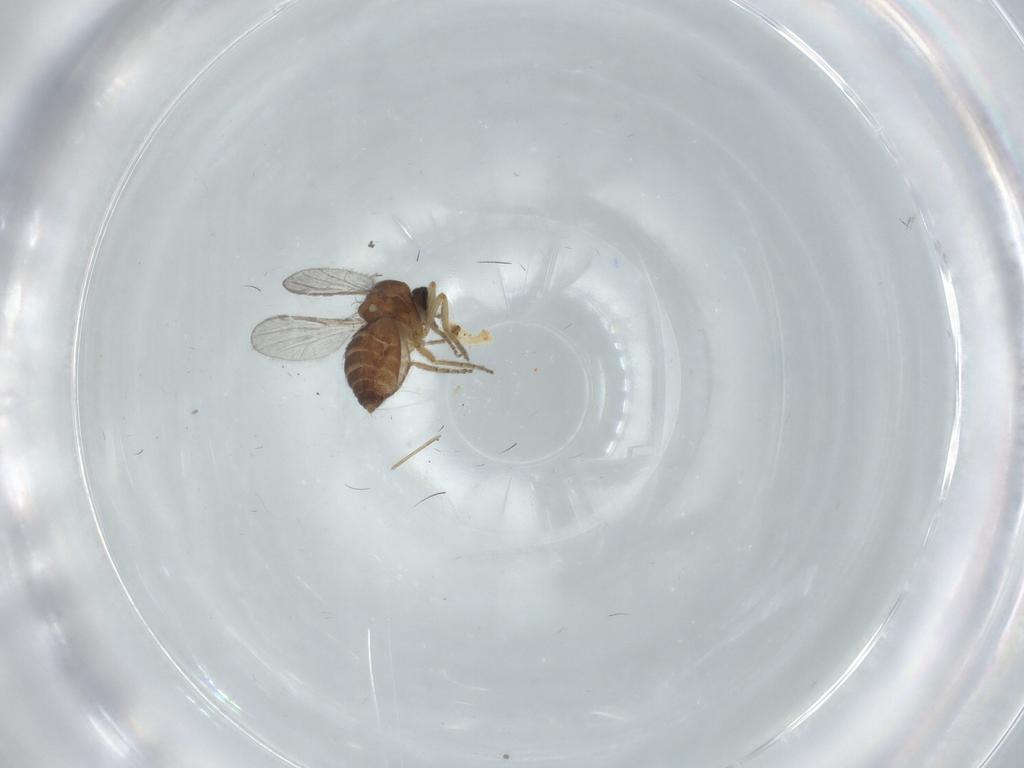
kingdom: Animalia
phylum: Arthropoda
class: Insecta
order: Diptera
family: Ceratopogonidae
